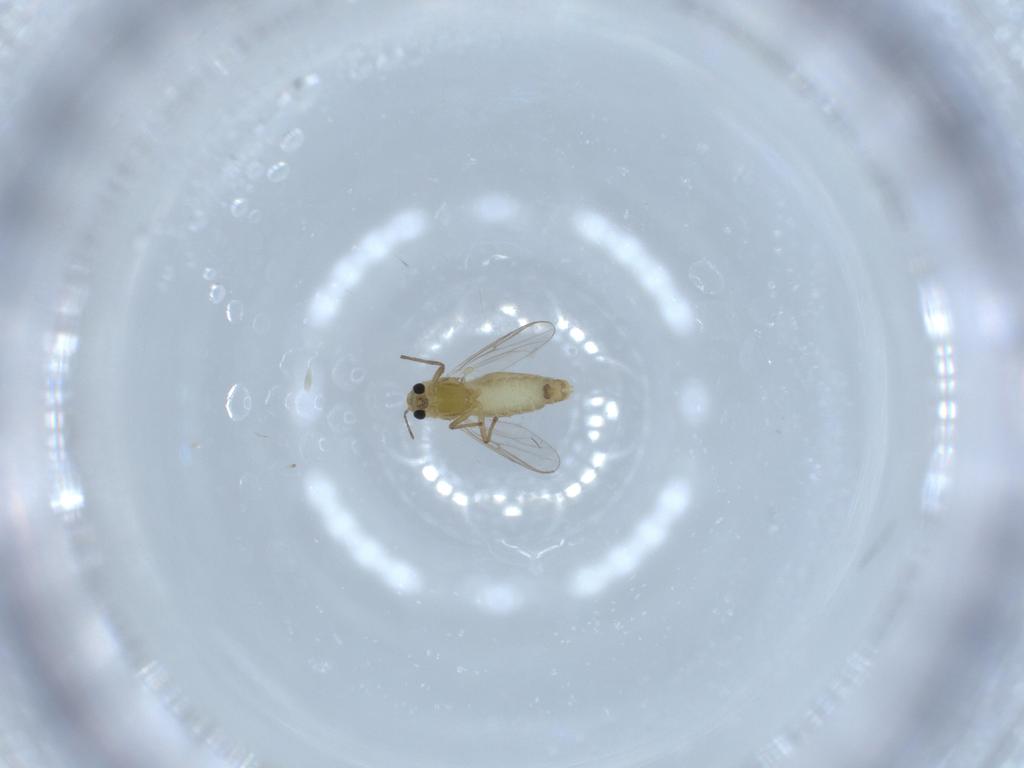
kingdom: Animalia
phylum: Arthropoda
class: Insecta
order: Diptera
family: Chironomidae
